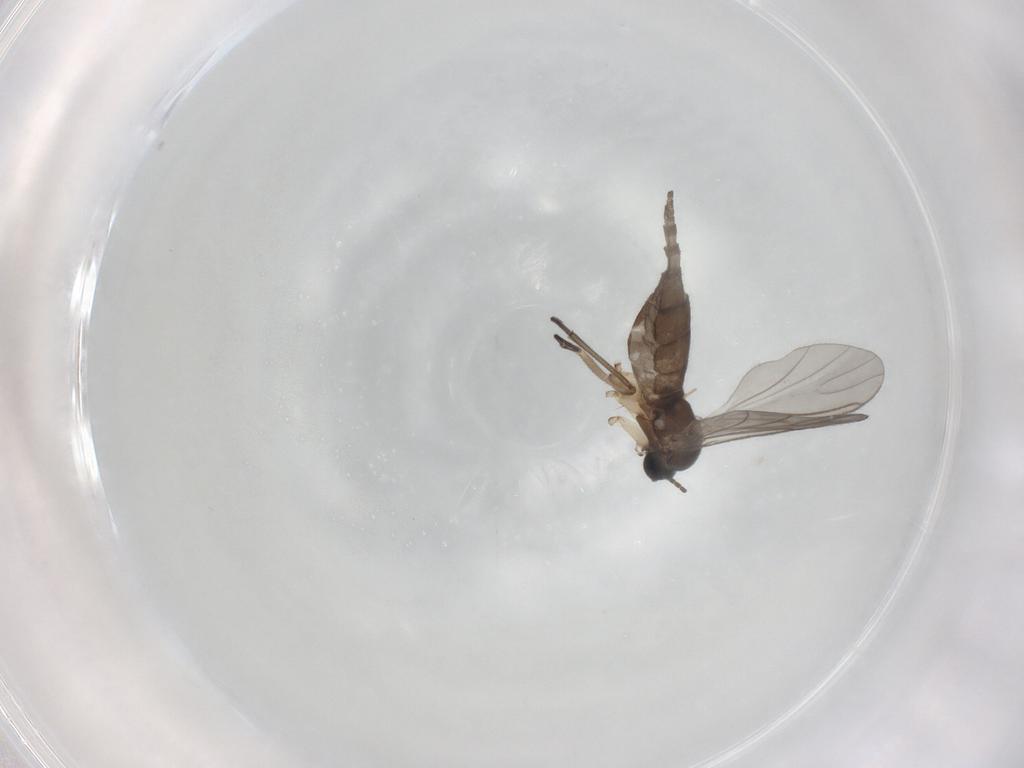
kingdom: Animalia
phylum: Arthropoda
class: Insecta
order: Diptera
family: Sciaridae
